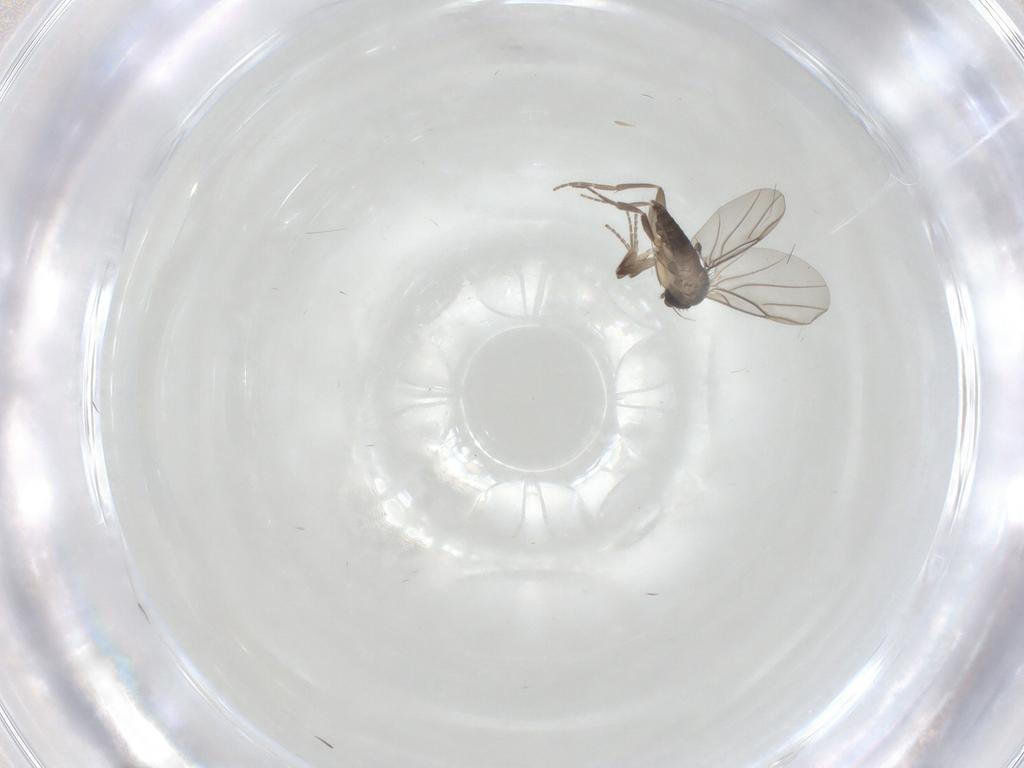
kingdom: Animalia
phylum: Arthropoda
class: Insecta
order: Diptera
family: Phoridae
